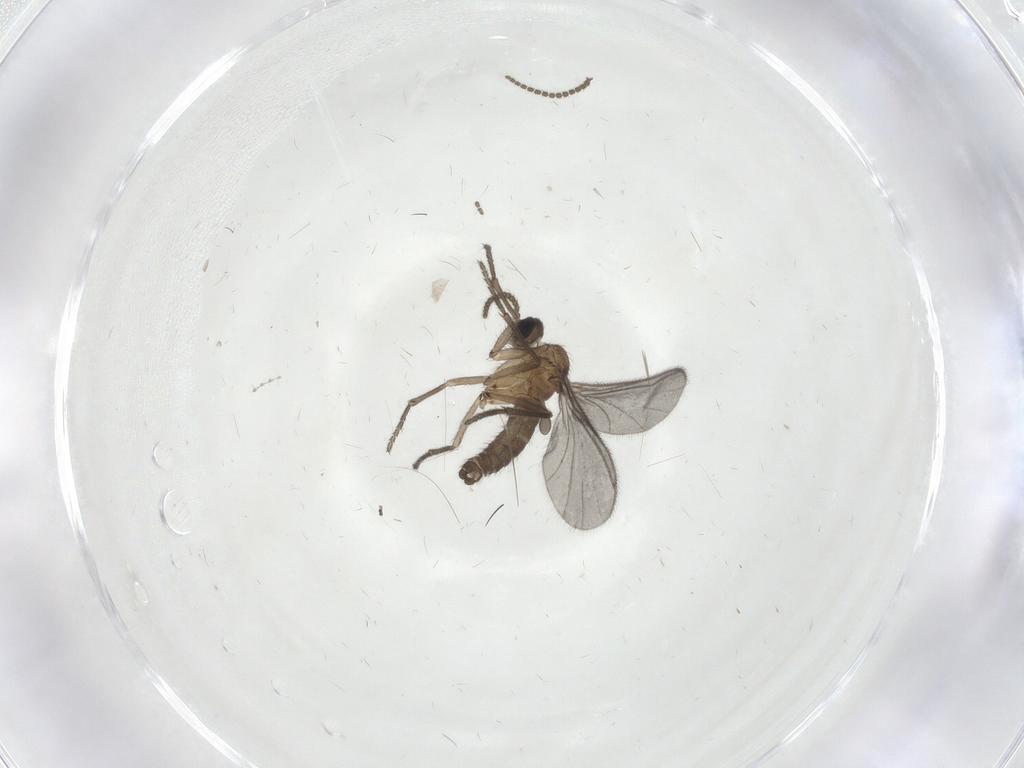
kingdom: Animalia
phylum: Arthropoda
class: Insecta
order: Diptera
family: Sciaridae
